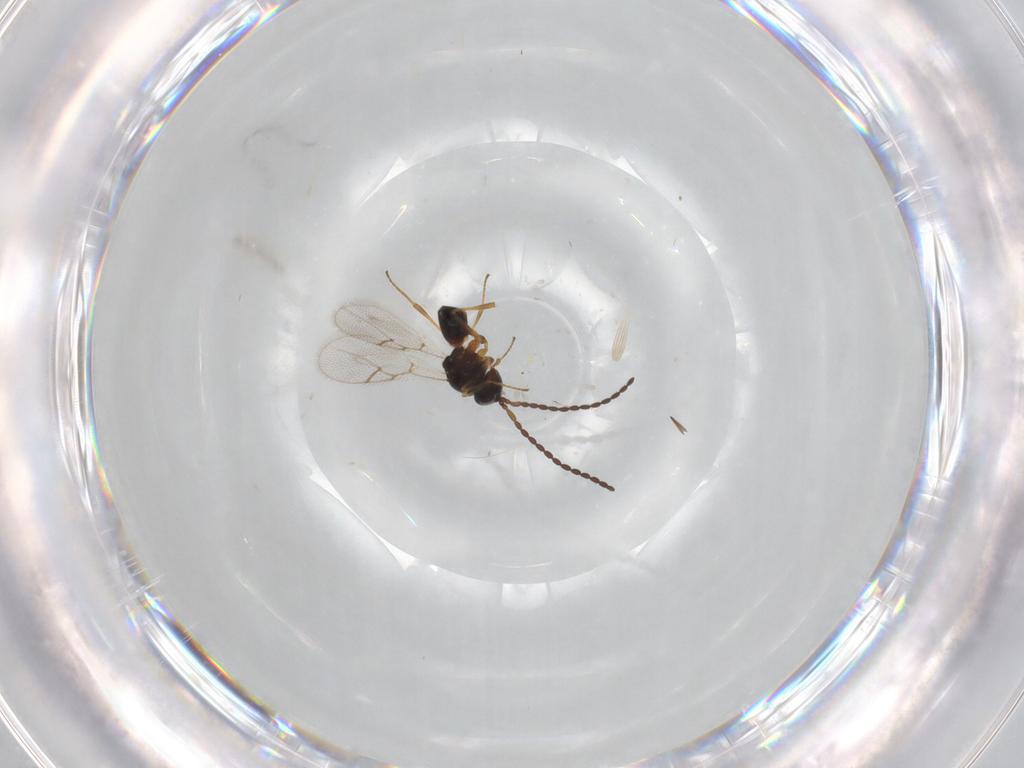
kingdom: Animalia
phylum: Arthropoda
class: Insecta
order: Hymenoptera
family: Figitidae
